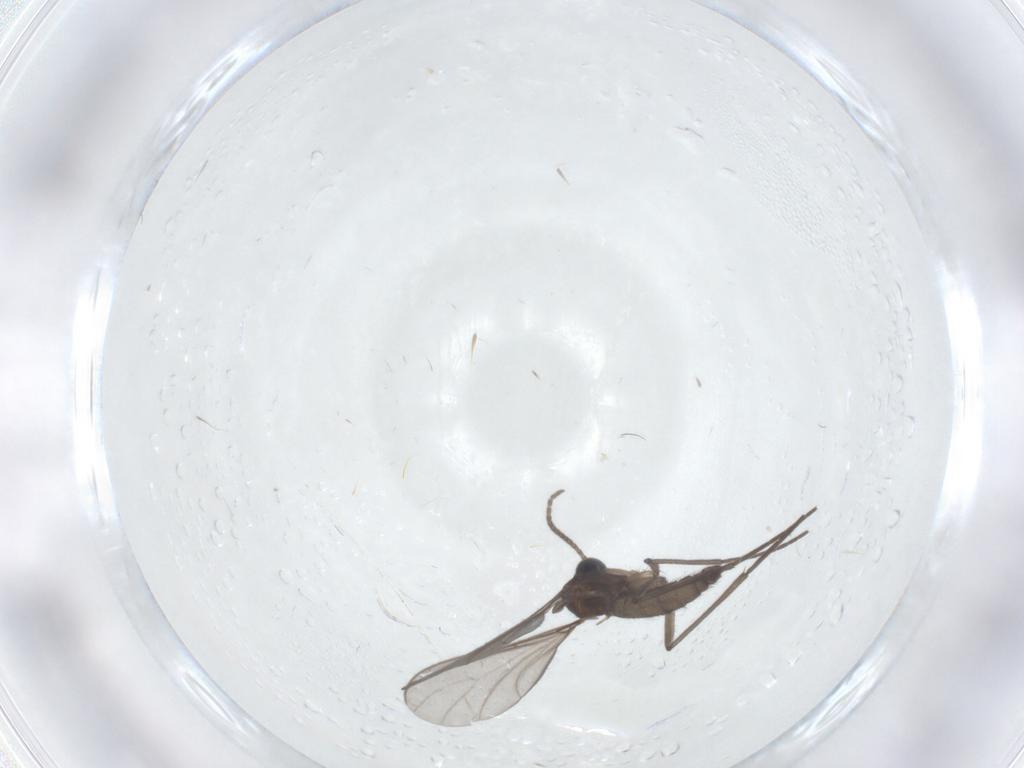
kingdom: Animalia
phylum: Arthropoda
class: Insecta
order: Diptera
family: Sciaridae
